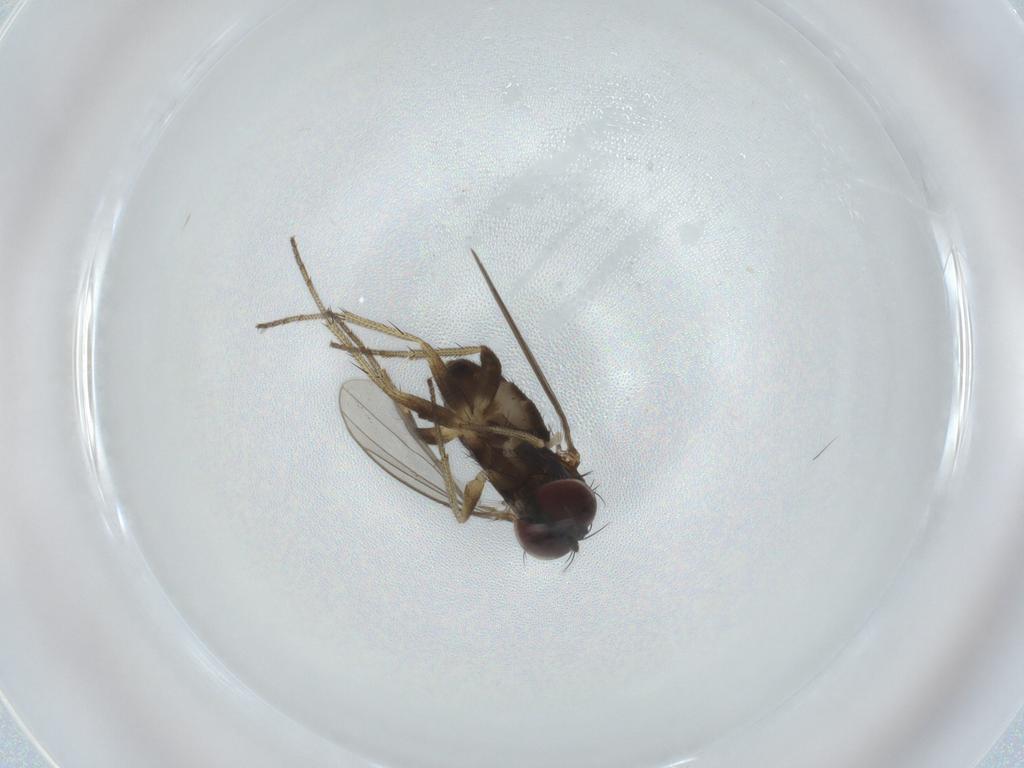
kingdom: Animalia
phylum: Arthropoda
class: Insecta
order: Diptera
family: Dolichopodidae
